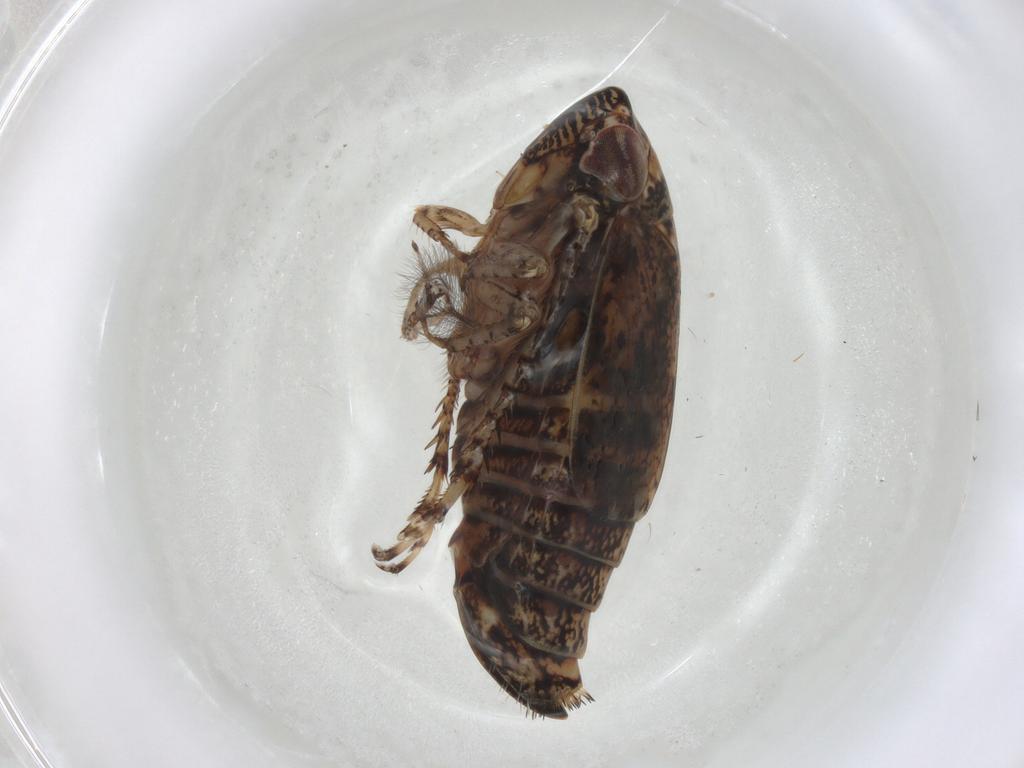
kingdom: Animalia
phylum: Arthropoda
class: Insecta
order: Hemiptera
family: Cicadellidae
